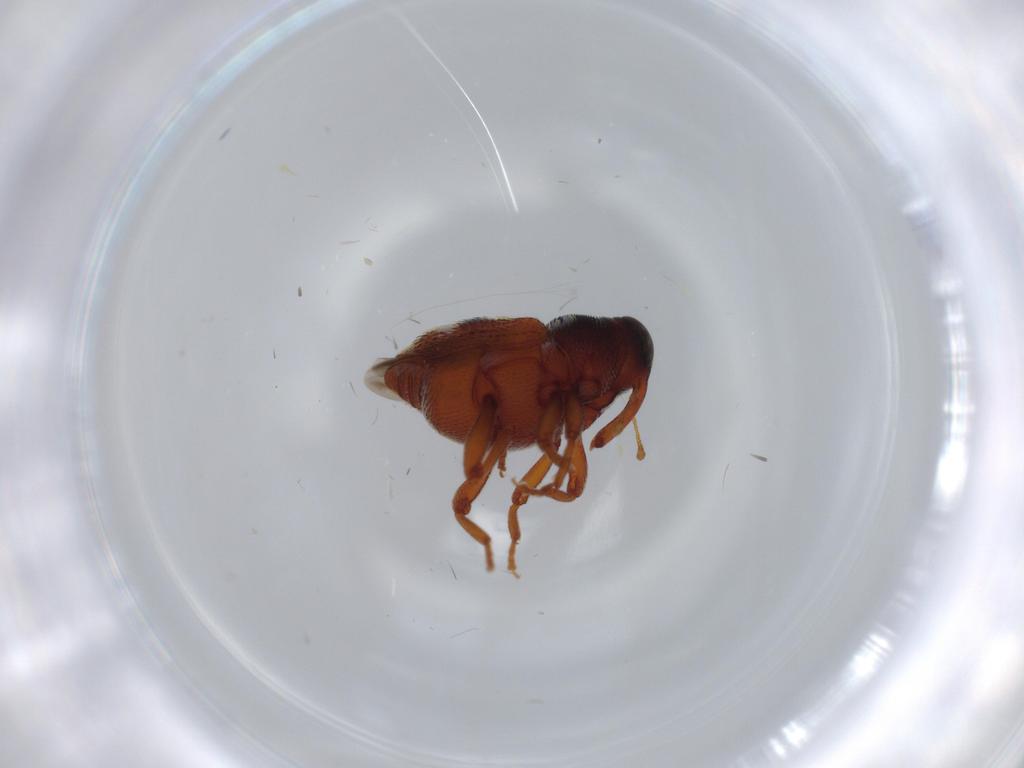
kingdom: Animalia
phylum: Arthropoda
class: Insecta
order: Coleoptera
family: Curculionidae
